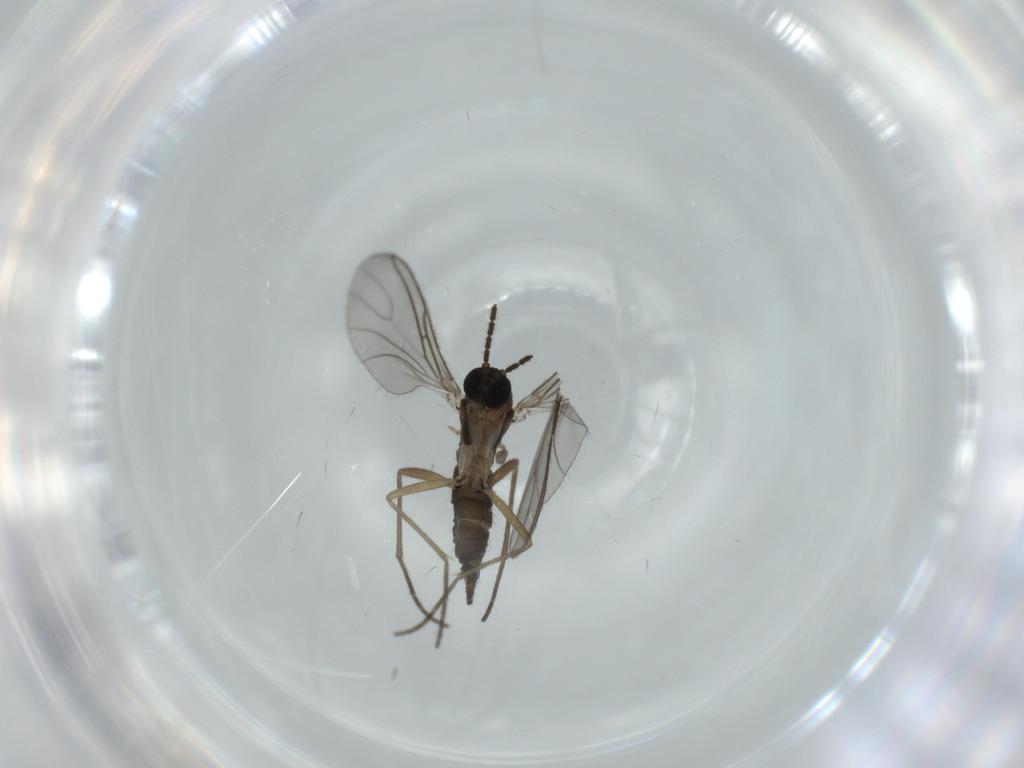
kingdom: Animalia
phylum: Arthropoda
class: Insecta
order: Diptera
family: Sciaridae
